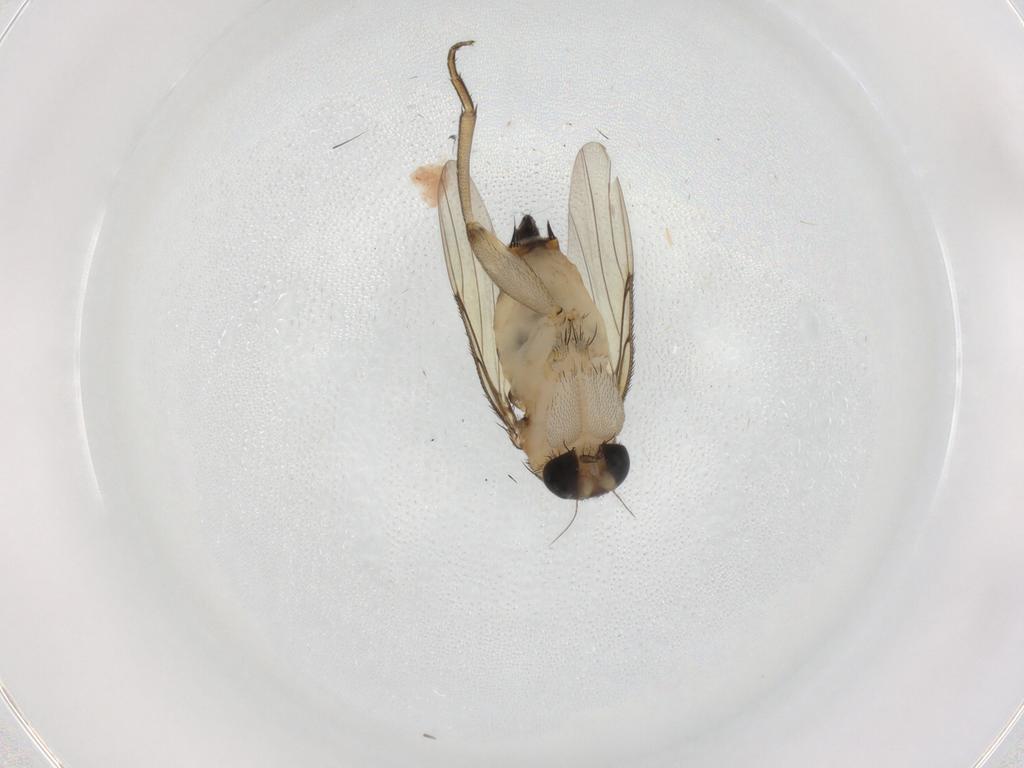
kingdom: Animalia
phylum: Arthropoda
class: Insecta
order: Diptera
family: Phoridae
